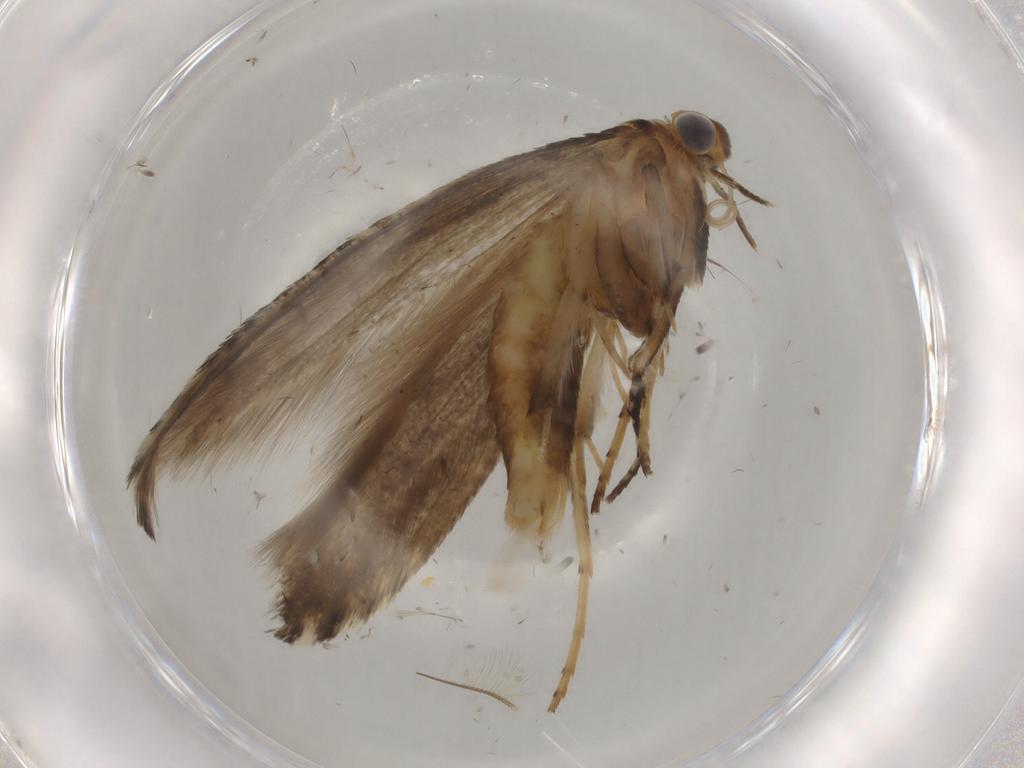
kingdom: Animalia
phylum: Arthropoda
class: Insecta
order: Lepidoptera
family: Argyresthiidae
